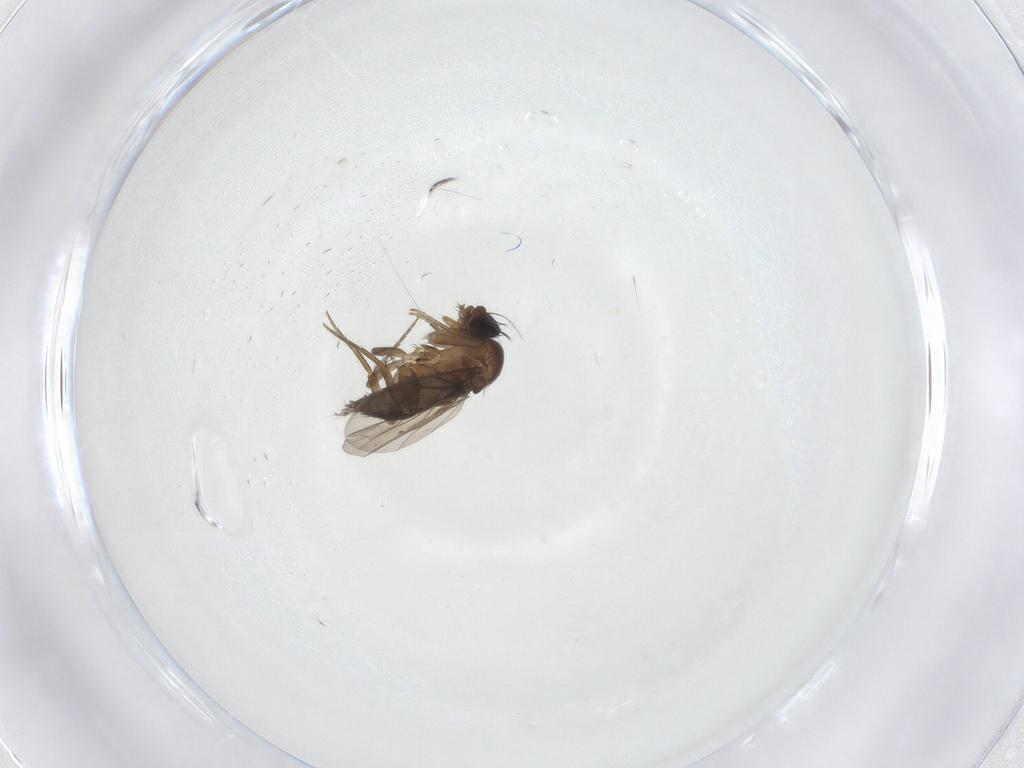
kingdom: Animalia
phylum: Arthropoda
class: Insecta
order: Diptera
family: Phoridae
